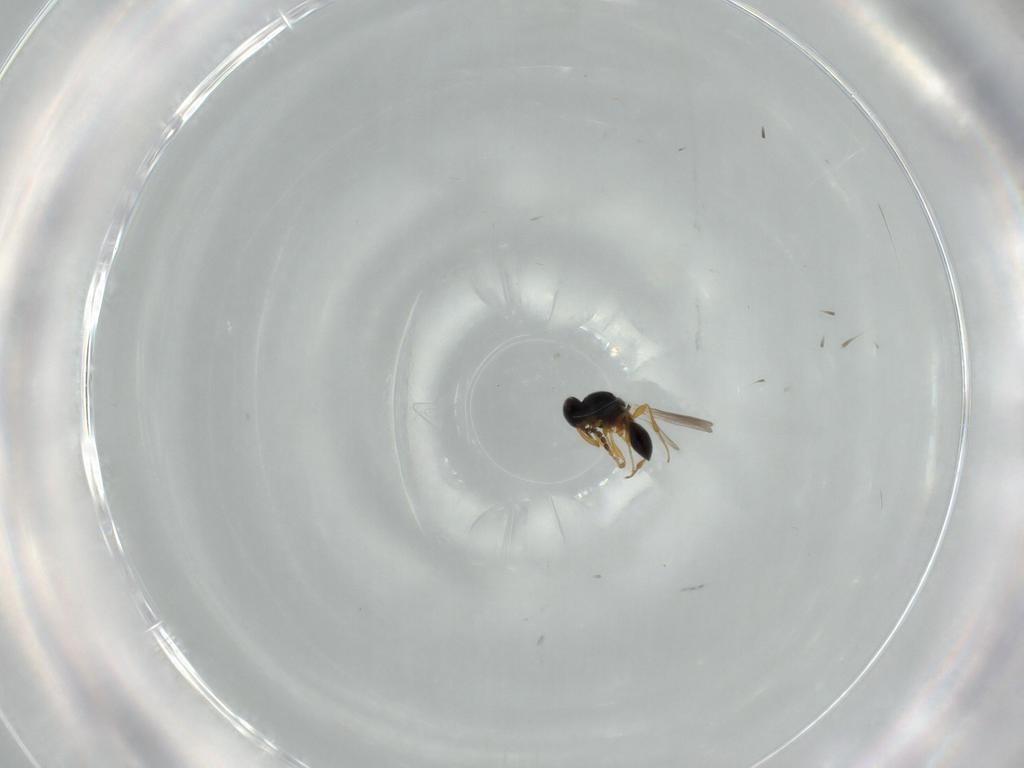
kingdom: Animalia
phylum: Arthropoda
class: Insecta
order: Hymenoptera
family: Platygastridae
